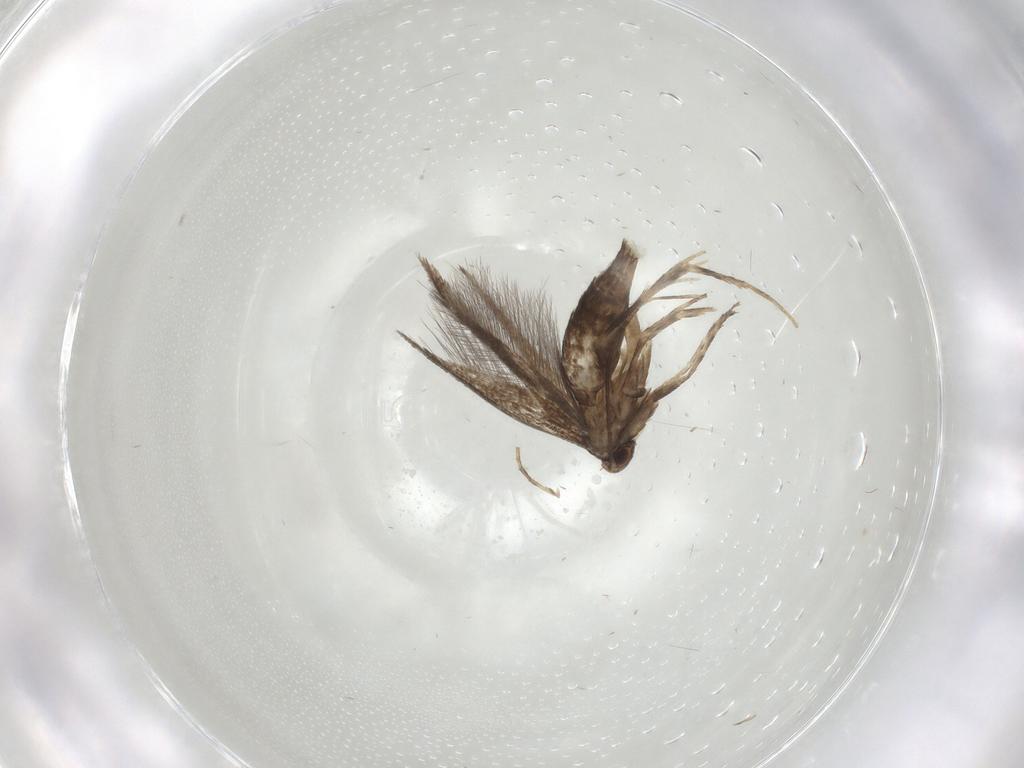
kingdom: Animalia
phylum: Arthropoda
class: Insecta
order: Lepidoptera
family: Gracillariidae
